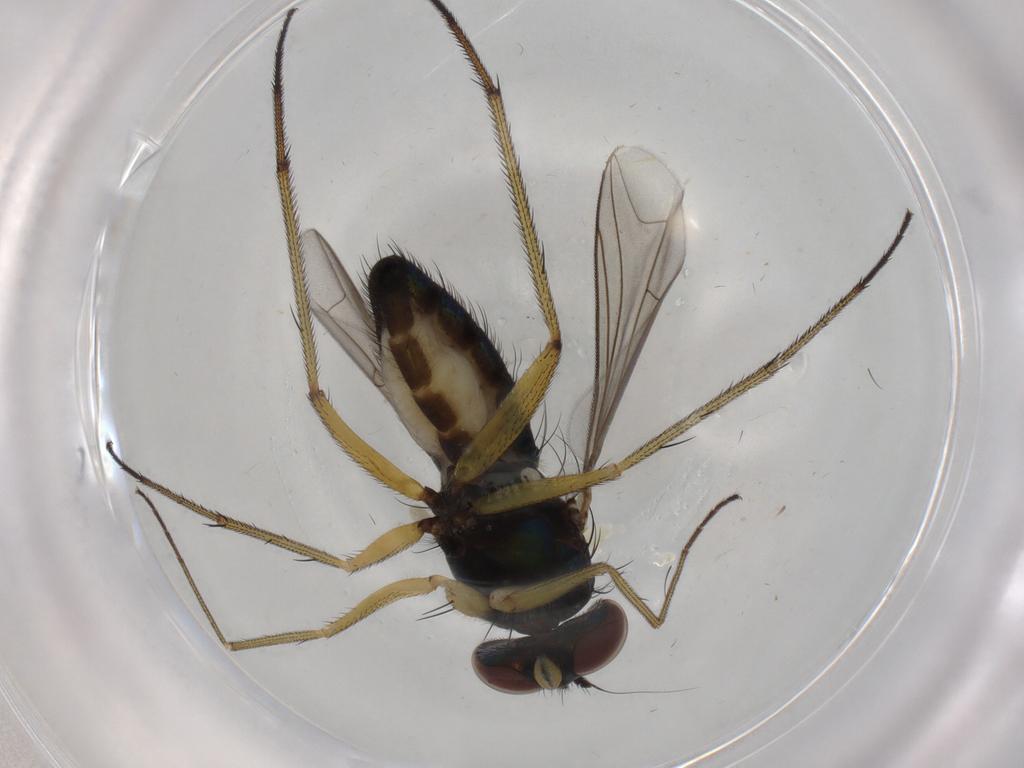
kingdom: Animalia
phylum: Arthropoda
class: Insecta
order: Diptera
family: Dolichopodidae
